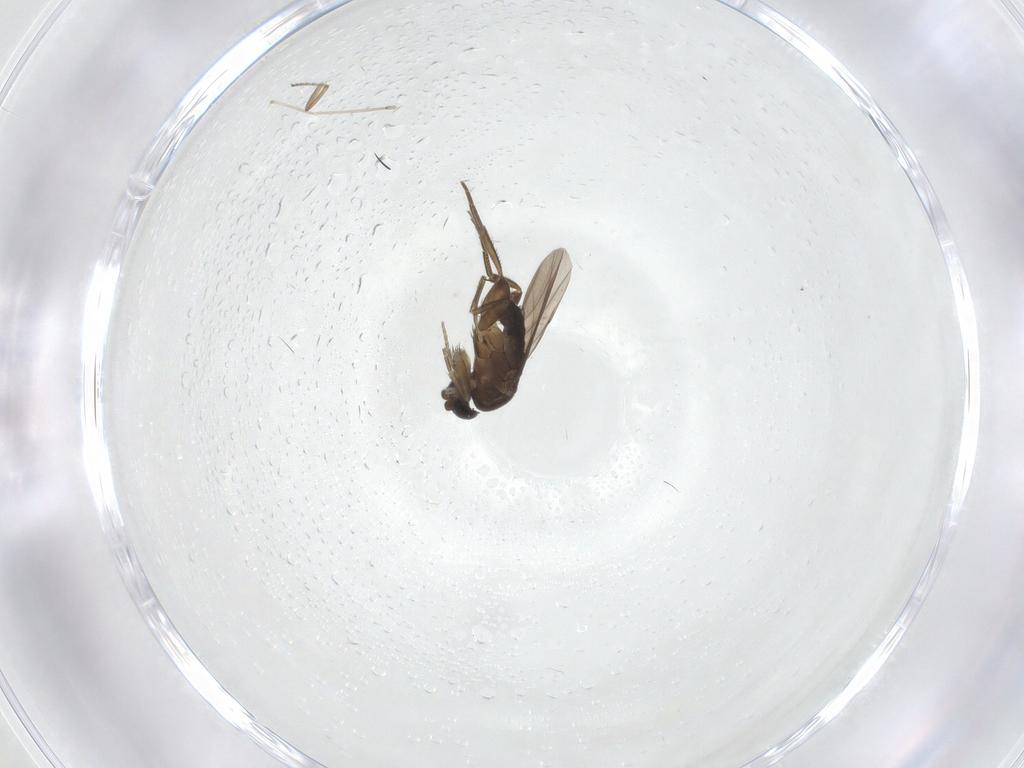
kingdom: Animalia
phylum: Arthropoda
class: Insecta
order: Diptera
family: Phoridae
